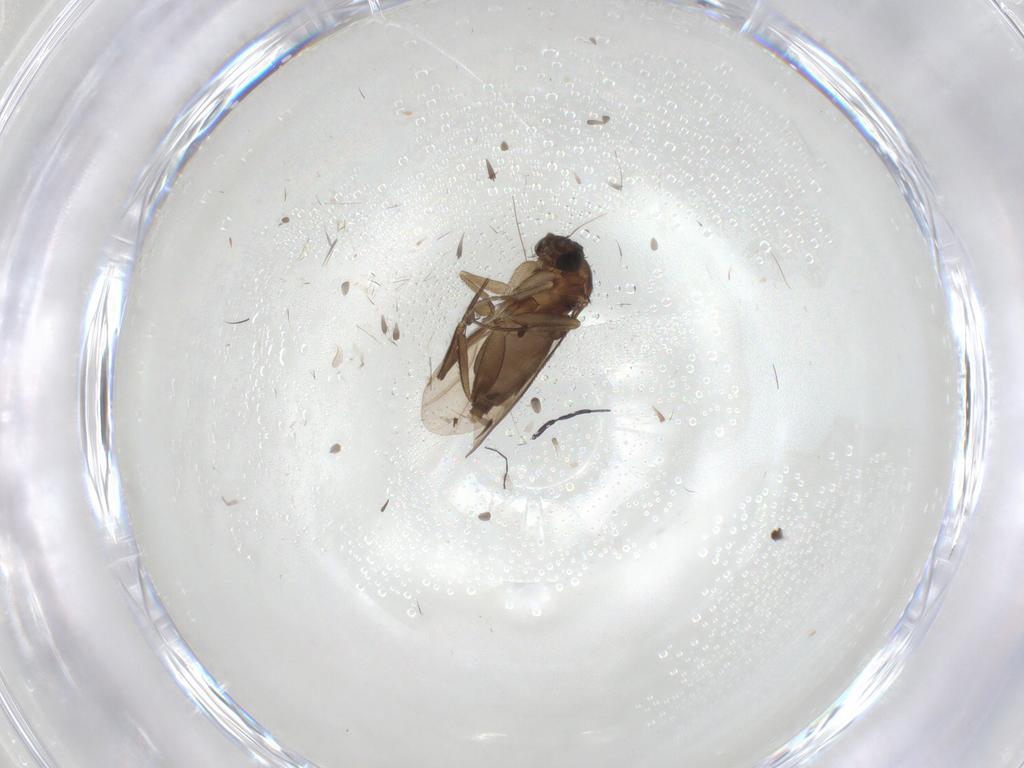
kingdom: Animalia
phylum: Arthropoda
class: Insecta
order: Diptera
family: Phoridae
